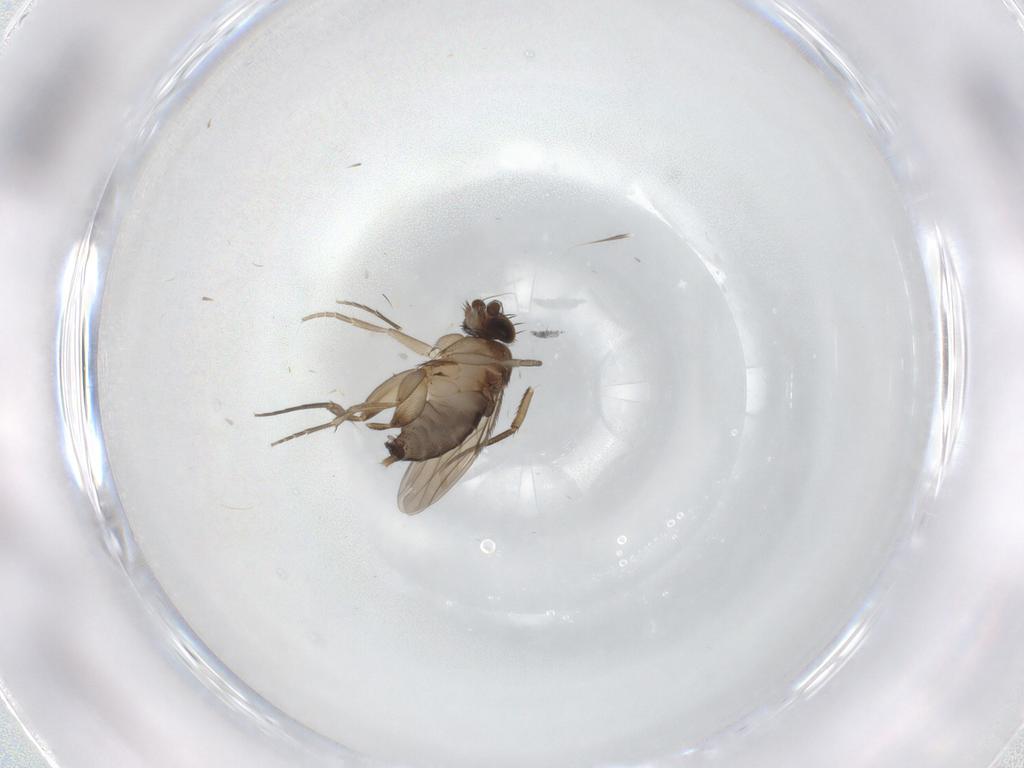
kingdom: Animalia
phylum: Arthropoda
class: Insecta
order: Diptera
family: Phoridae
